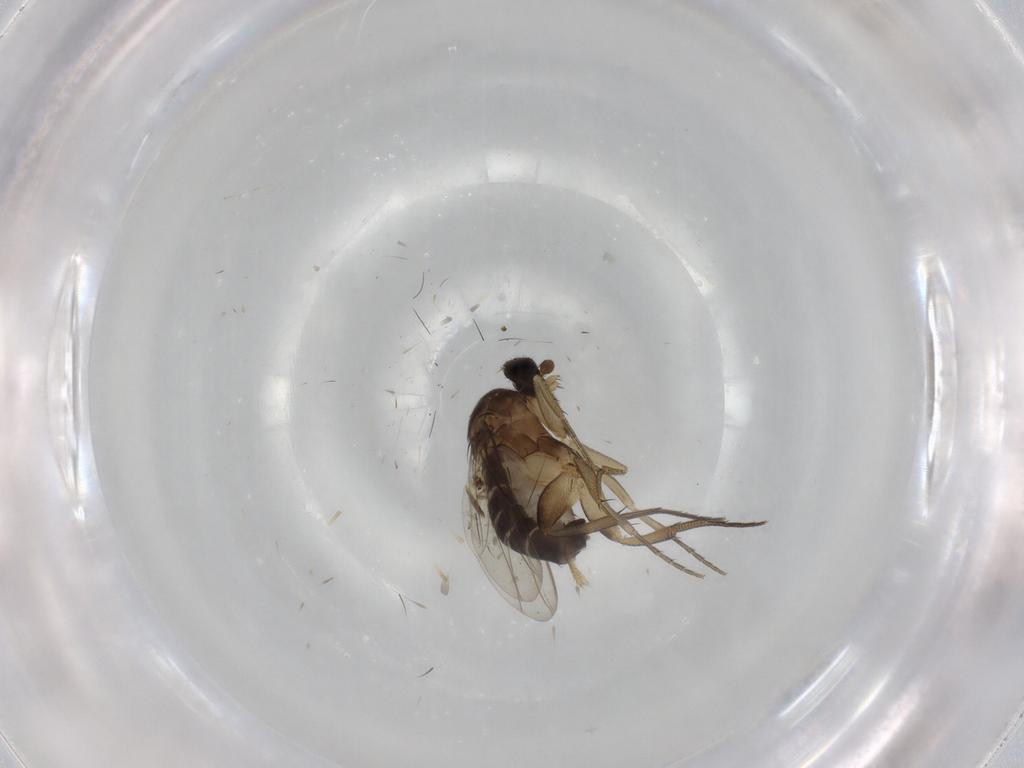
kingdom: Animalia
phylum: Arthropoda
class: Insecta
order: Diptera
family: Phoridae
